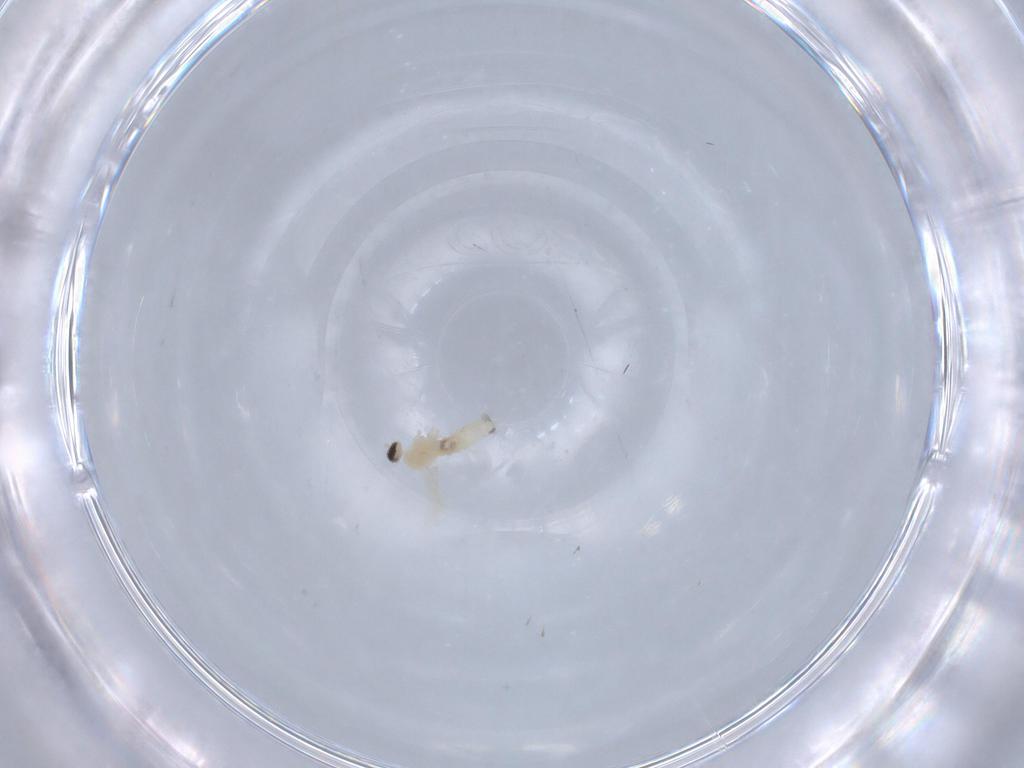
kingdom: Animalia
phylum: Arthropoda
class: Insecta
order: Diptera
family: Cecidomyiidae
